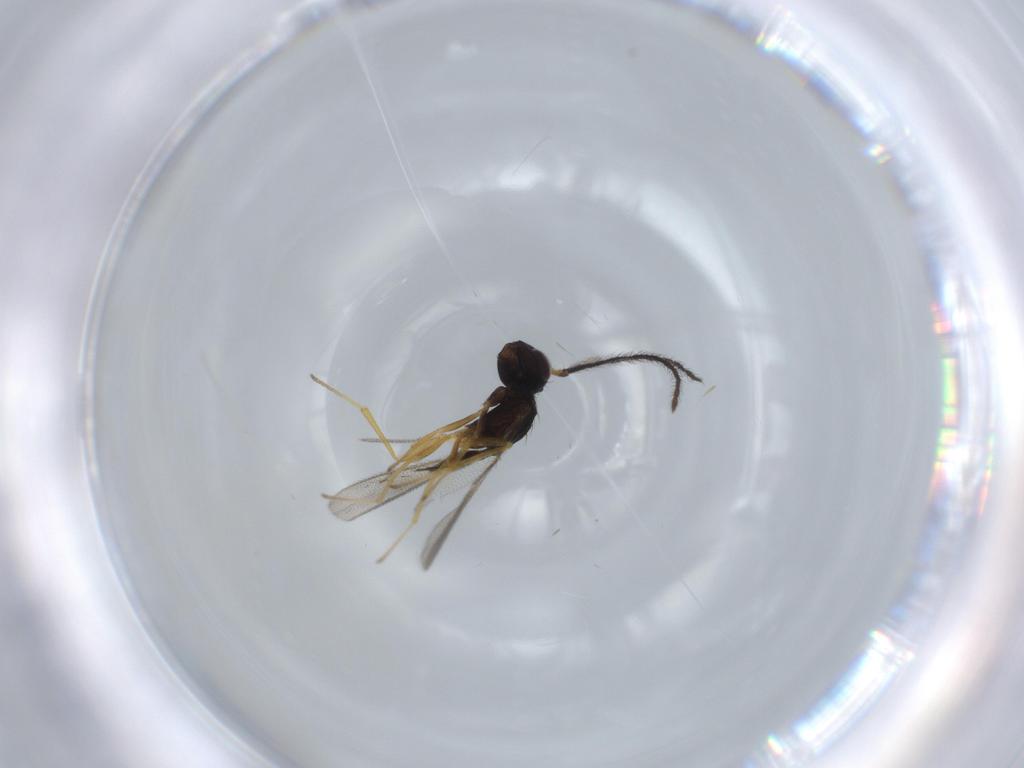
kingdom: Animalia
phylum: Arthropoda
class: Insecta
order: Hymenoptera
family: Diparidae
